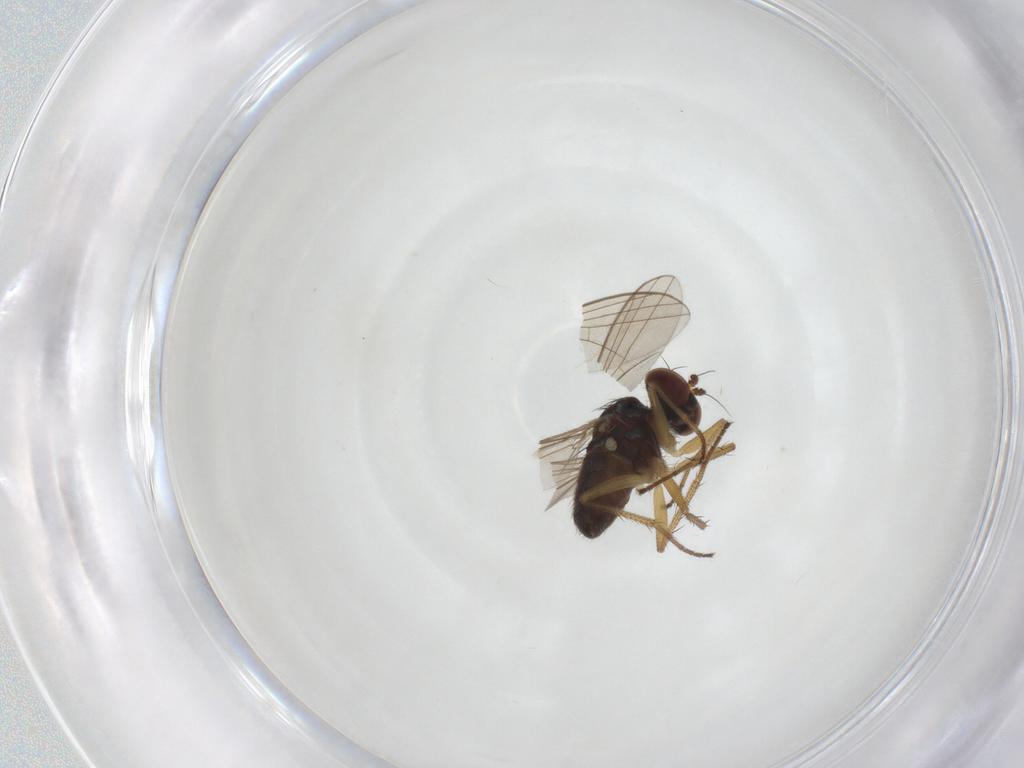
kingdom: Animalia
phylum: Arthropoda
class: Insecta
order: Diptera
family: Dolichopodidae
